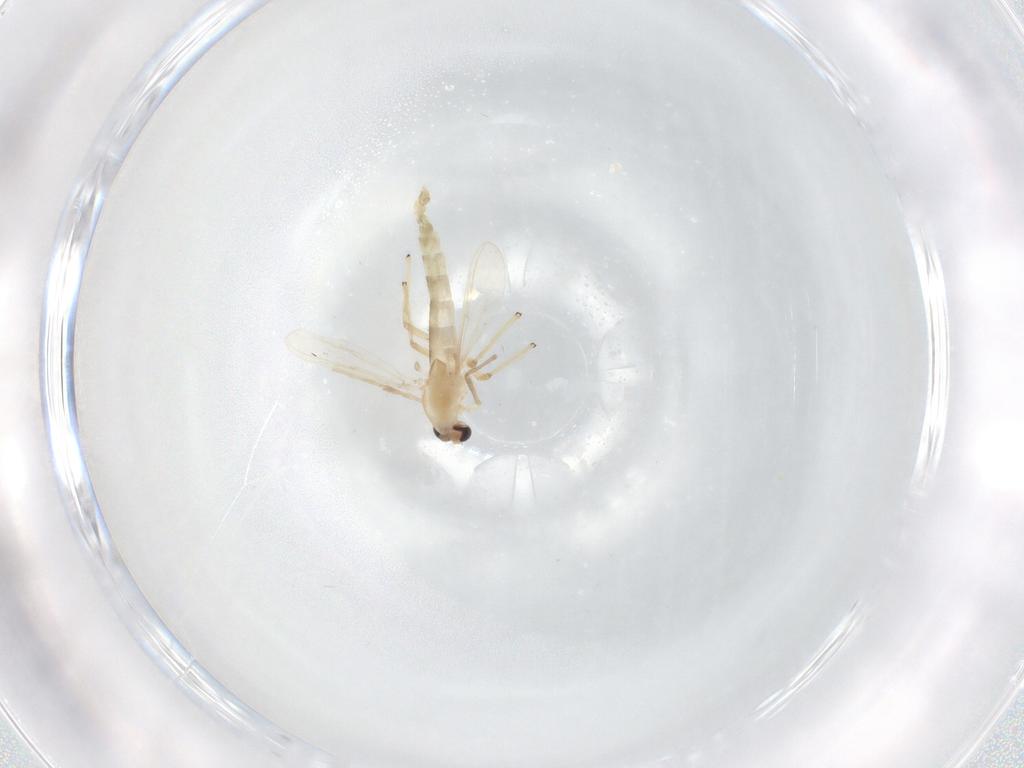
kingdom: Animalia
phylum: Arthropoda
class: Insecta
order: Diptera
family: Chironomidae
